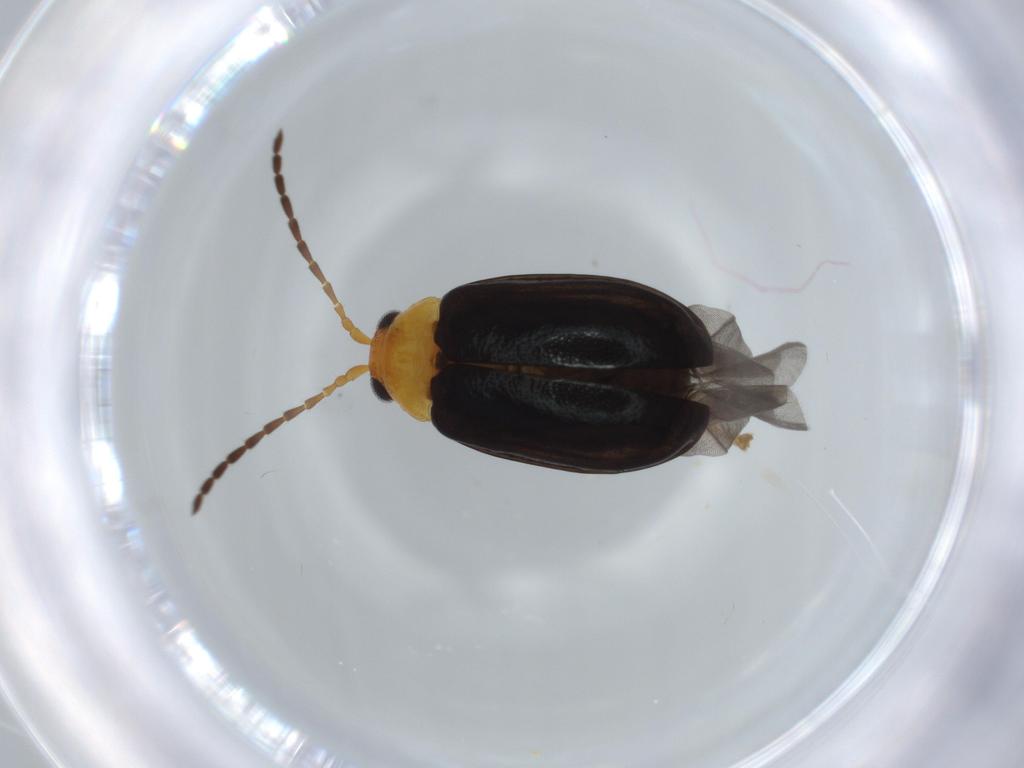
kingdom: Animalia
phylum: Arthropoda
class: Insecta
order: Coleoptera
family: Chrysomelidae
